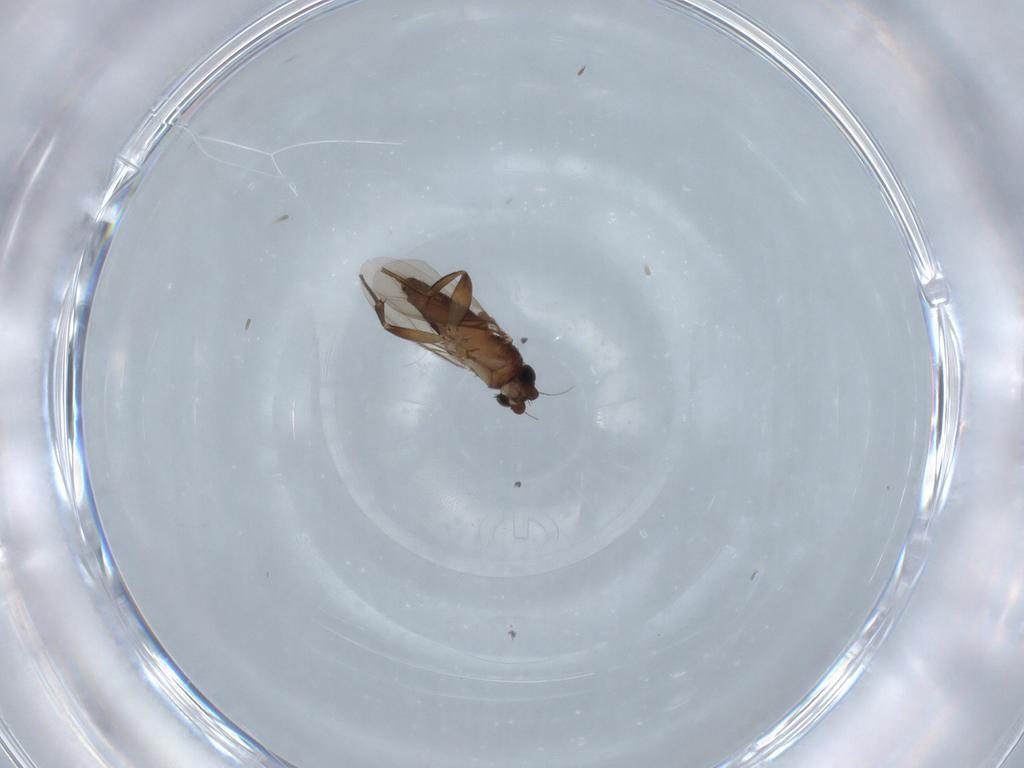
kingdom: Animalia
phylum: Arthropoda
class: Insecta
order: Diptera
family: Phoridae
